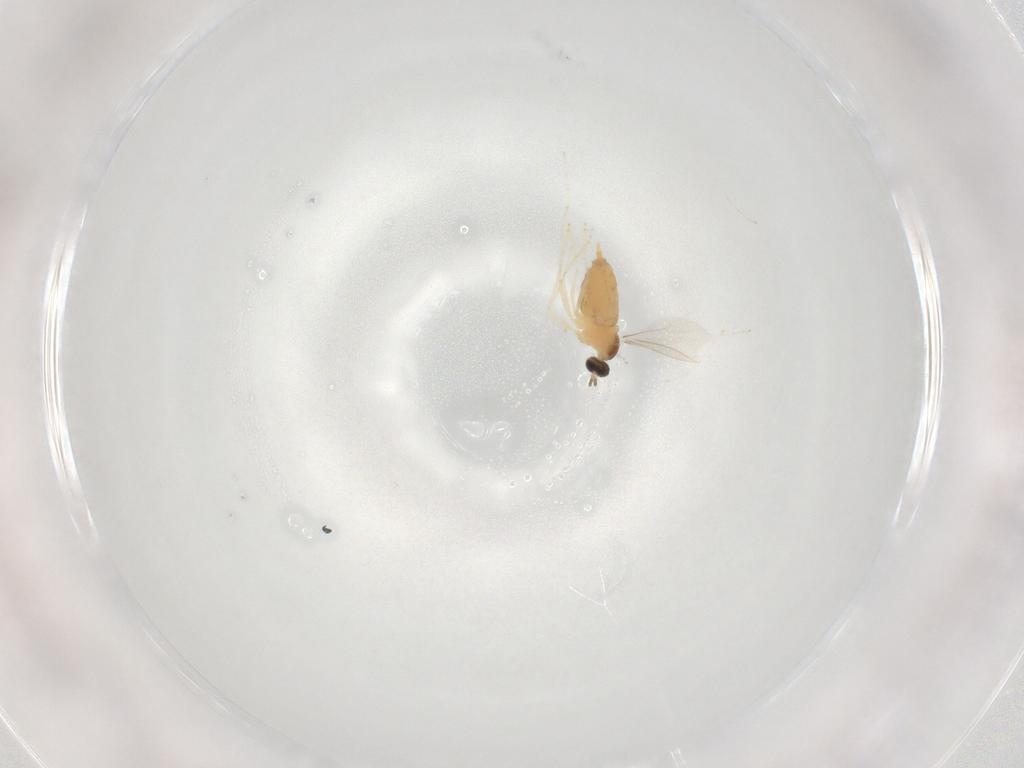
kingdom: Animalia
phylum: Arthropoda
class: Insecta
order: Diptera
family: Cecidomyiidae
